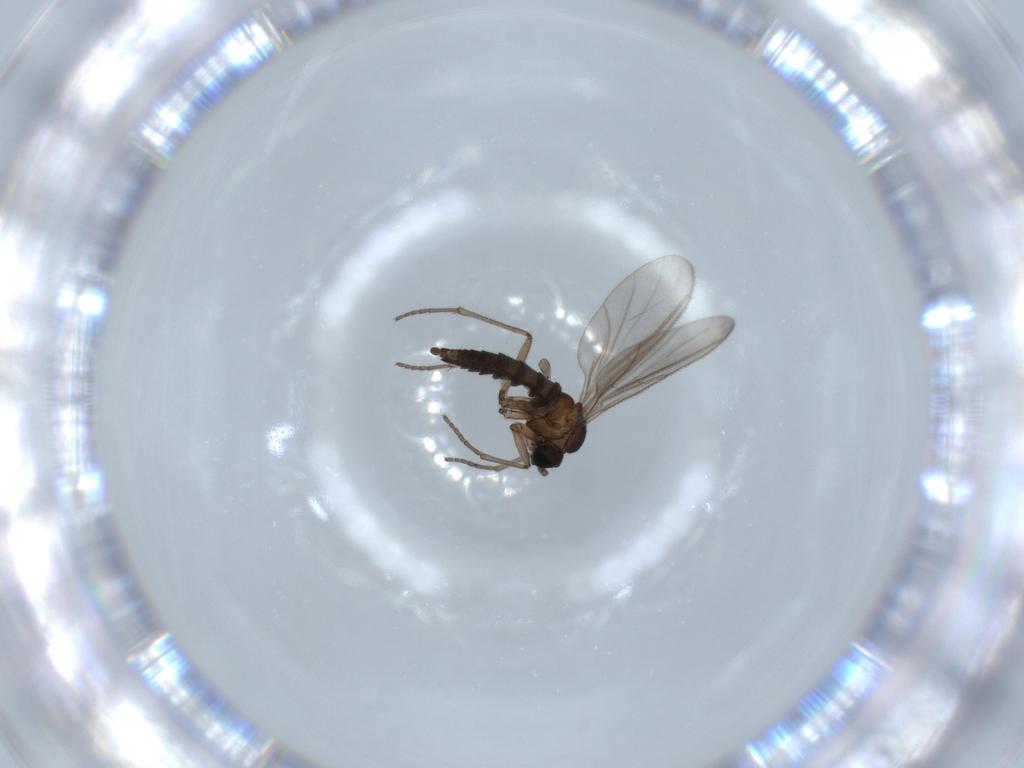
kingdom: Animalia
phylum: Arthropoda
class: Insecta
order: Diptera
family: Sciaridae
